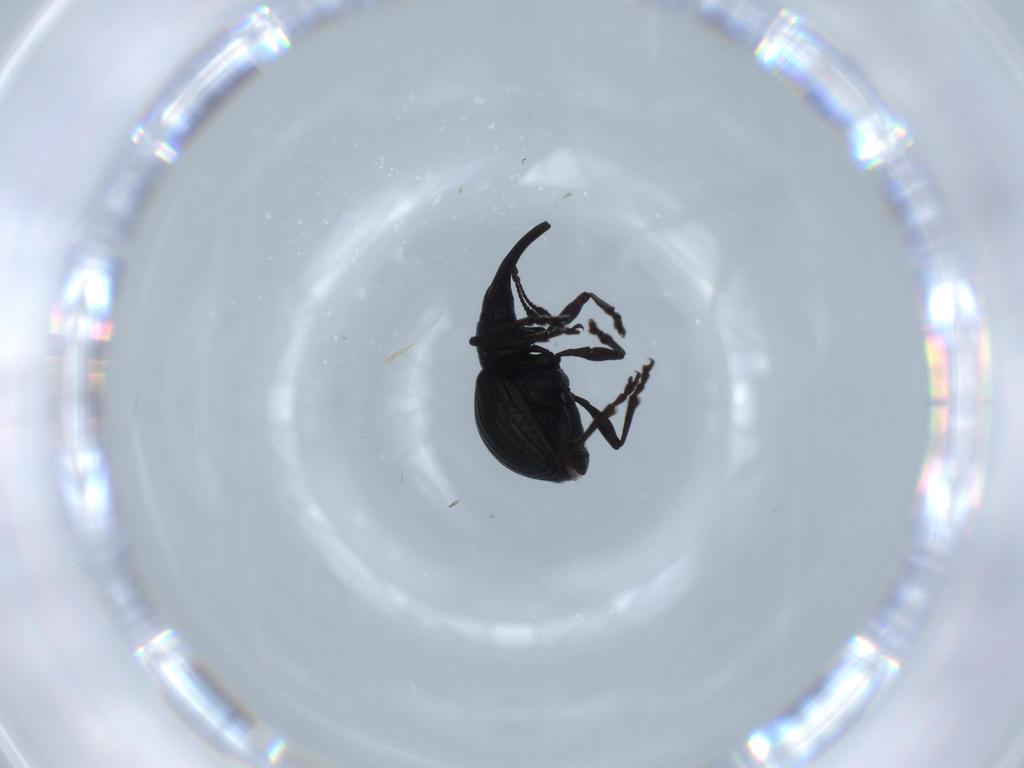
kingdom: Animalia
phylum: Arthropoda
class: Insecta
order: Coleoptera
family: Brentidae
